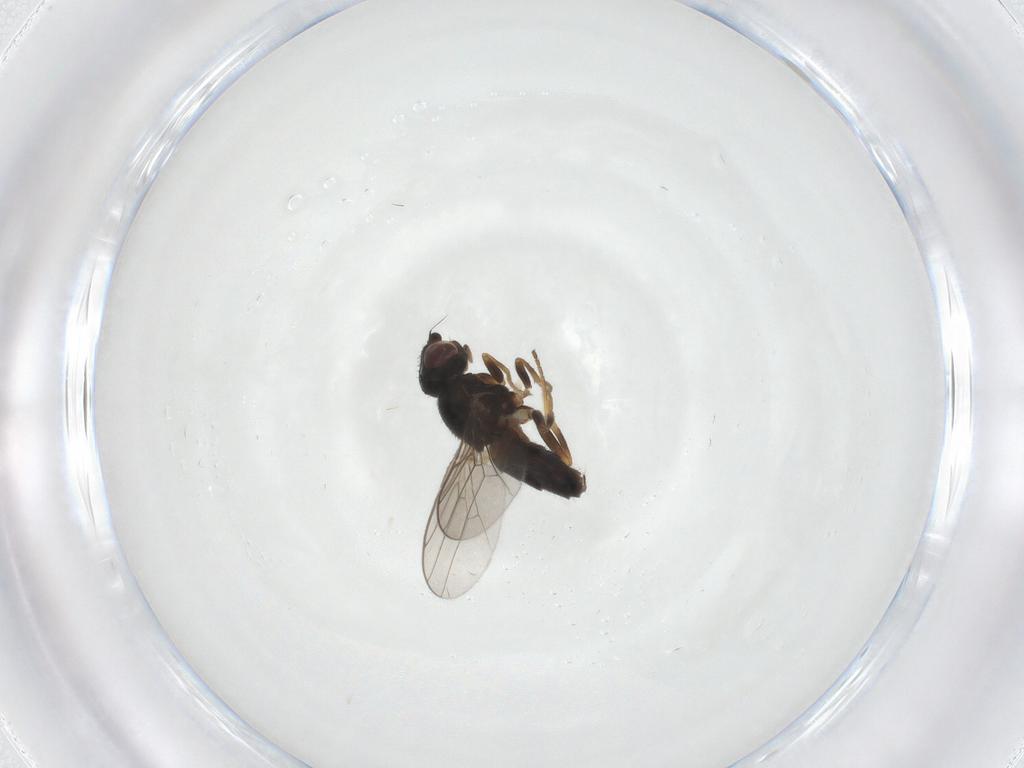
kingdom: Animalia
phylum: Arthropoda
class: Insecta
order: Diptera
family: Chloropidae
